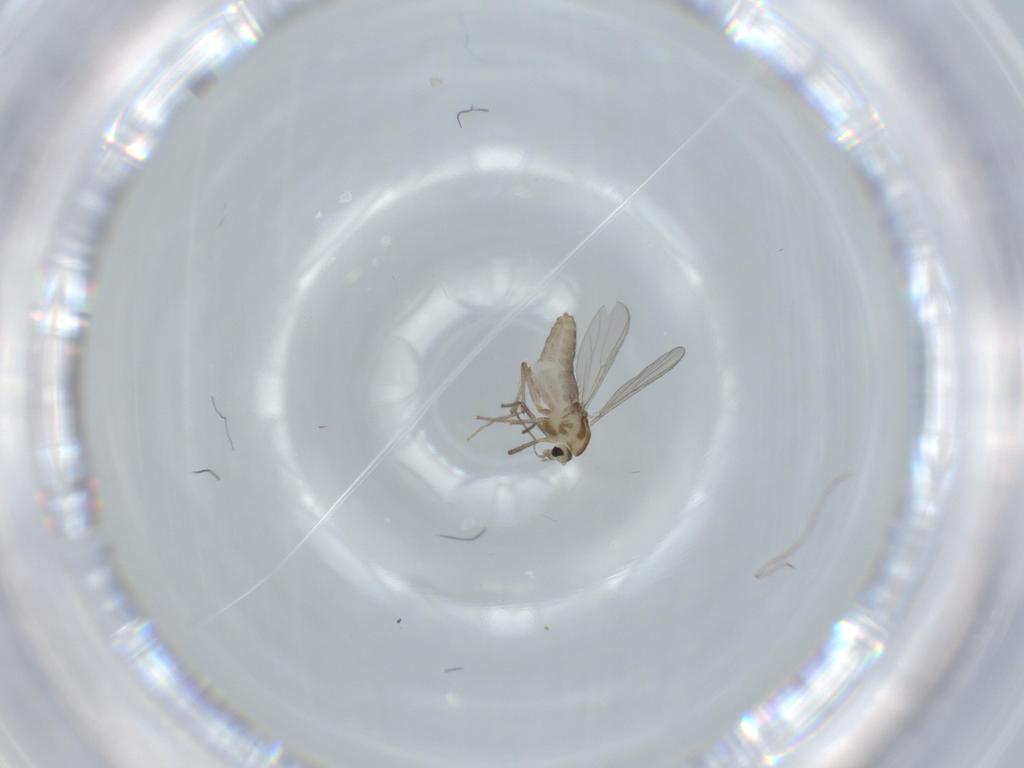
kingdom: Animalia
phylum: Arthropoda
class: Insecta
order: Diptera
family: Chironomidae
